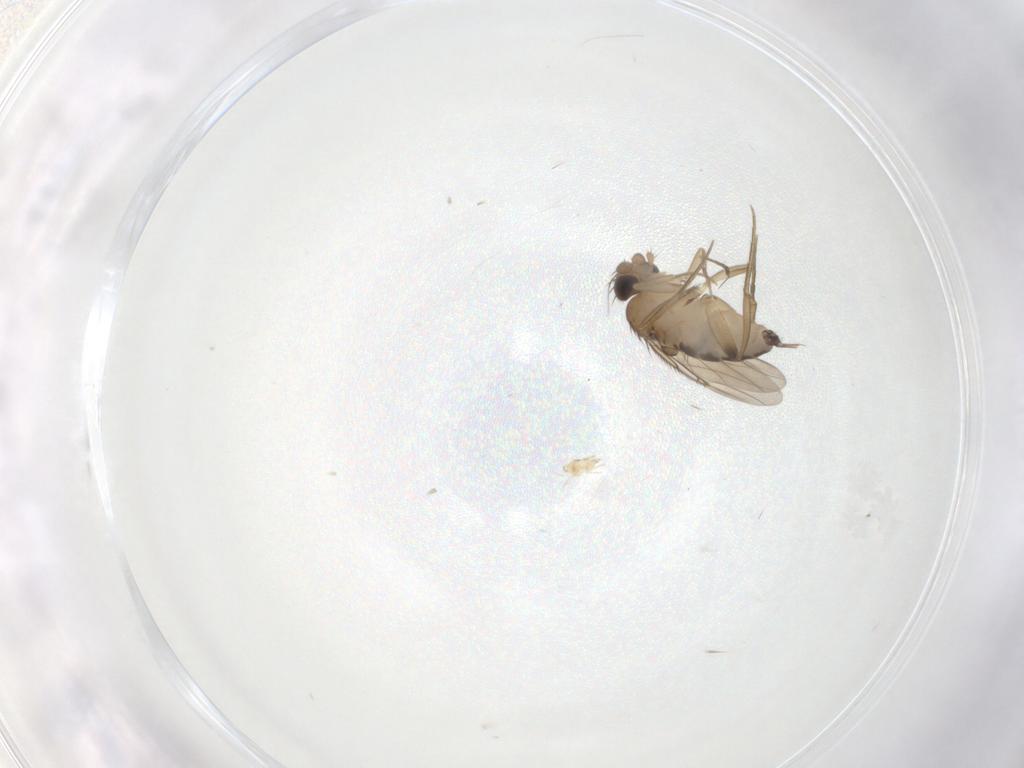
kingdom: Animalia
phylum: Arthropoda
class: Insecta
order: Diptera
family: Phoridae
